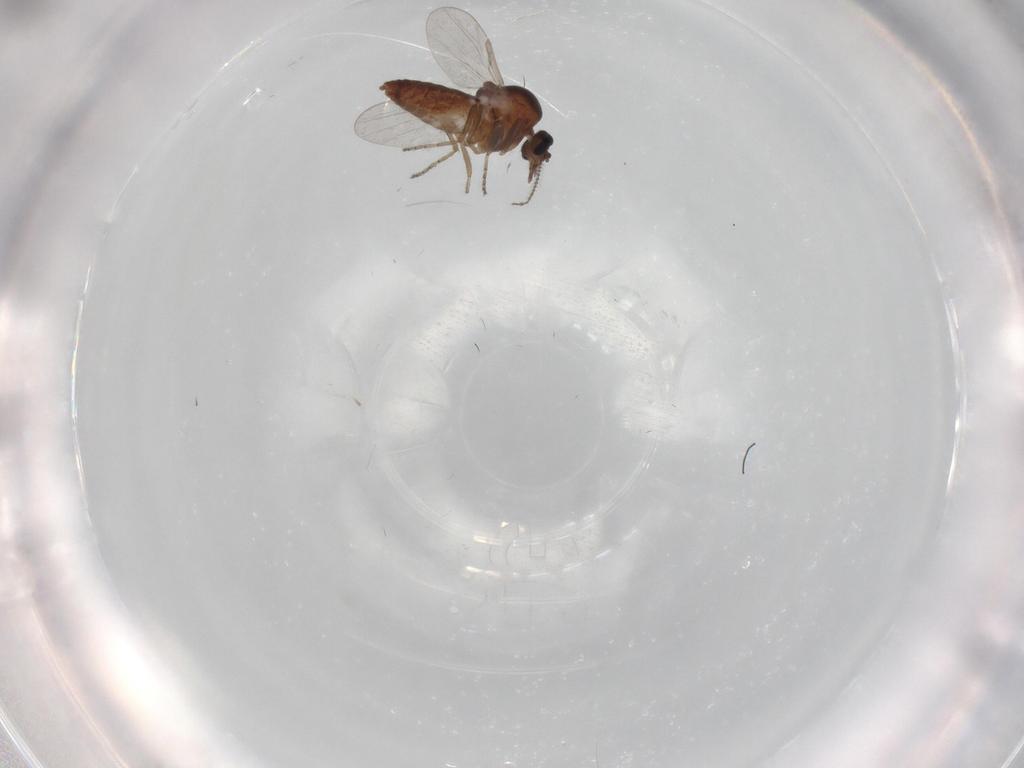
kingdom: Animalia
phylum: Arthropoda
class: Insecta
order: Diptera
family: Ceratopogonidae
